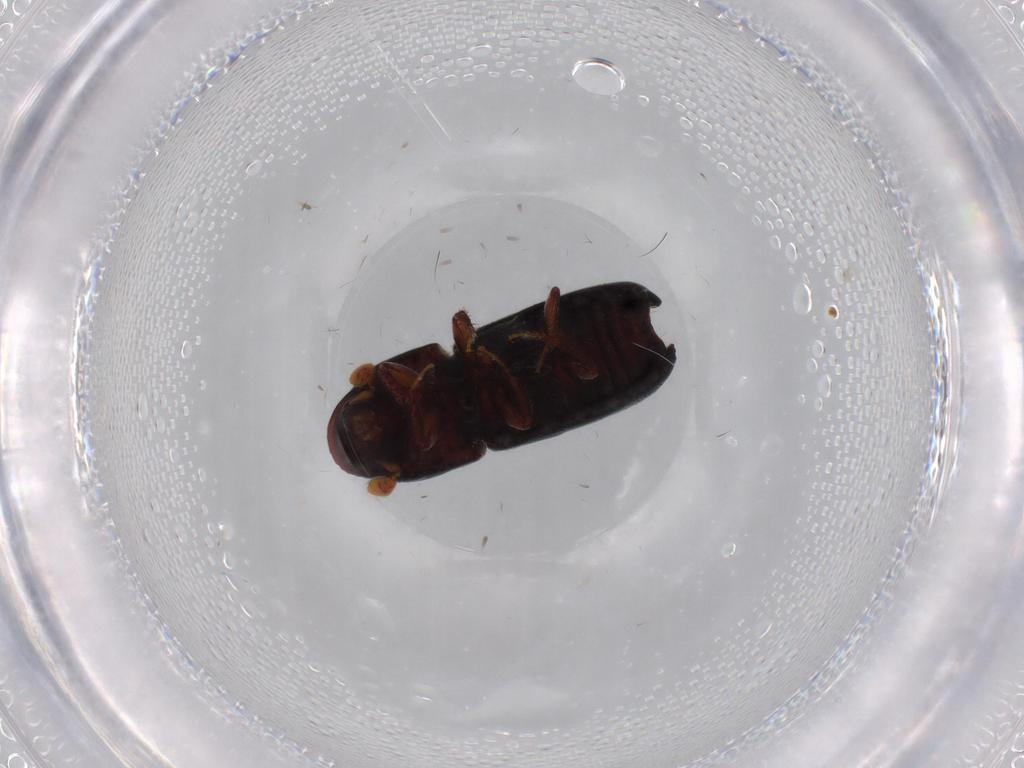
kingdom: Animalia
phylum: Arthropoda
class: Insecta
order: Coleoptera
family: Curculionidae
